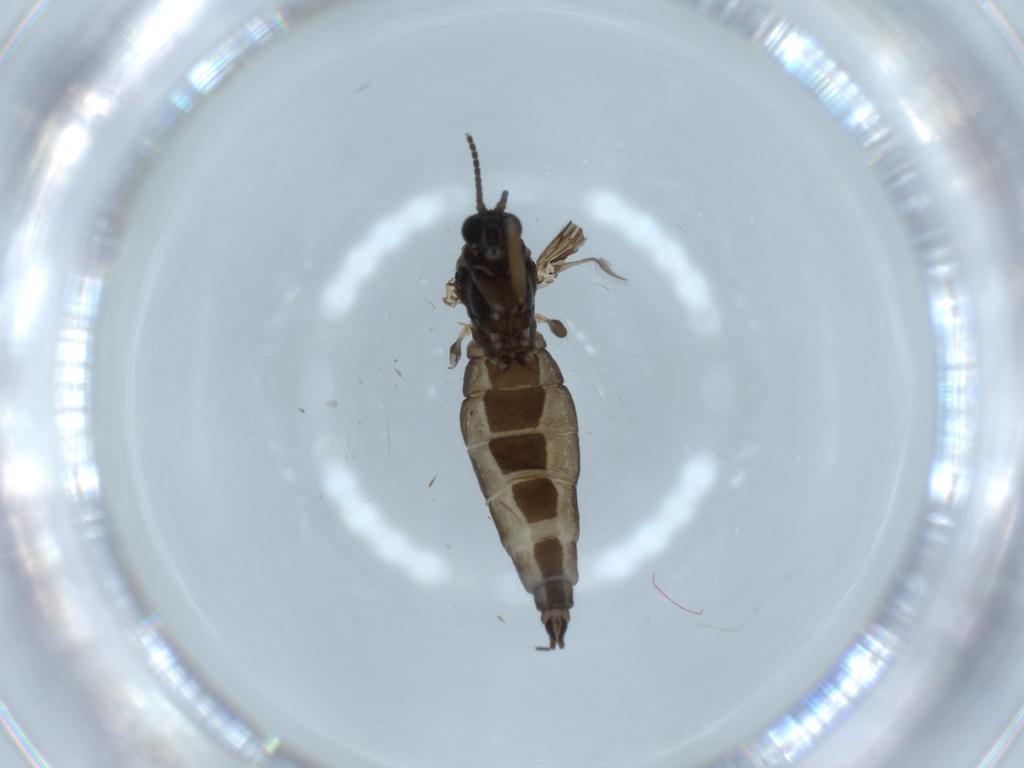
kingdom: Animalia
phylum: Arthropoda
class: Insecta
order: Diptera
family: Sciaridae
